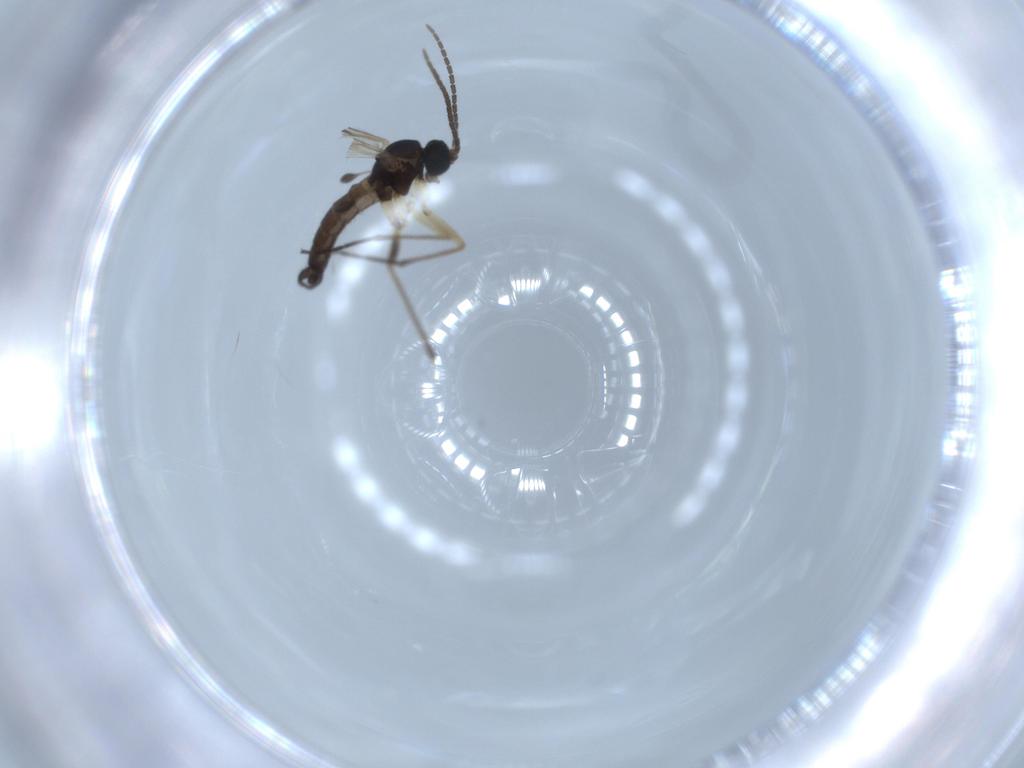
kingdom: Animalia
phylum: Arthropoda
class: Insecta
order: Diptera
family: Sciaridae
